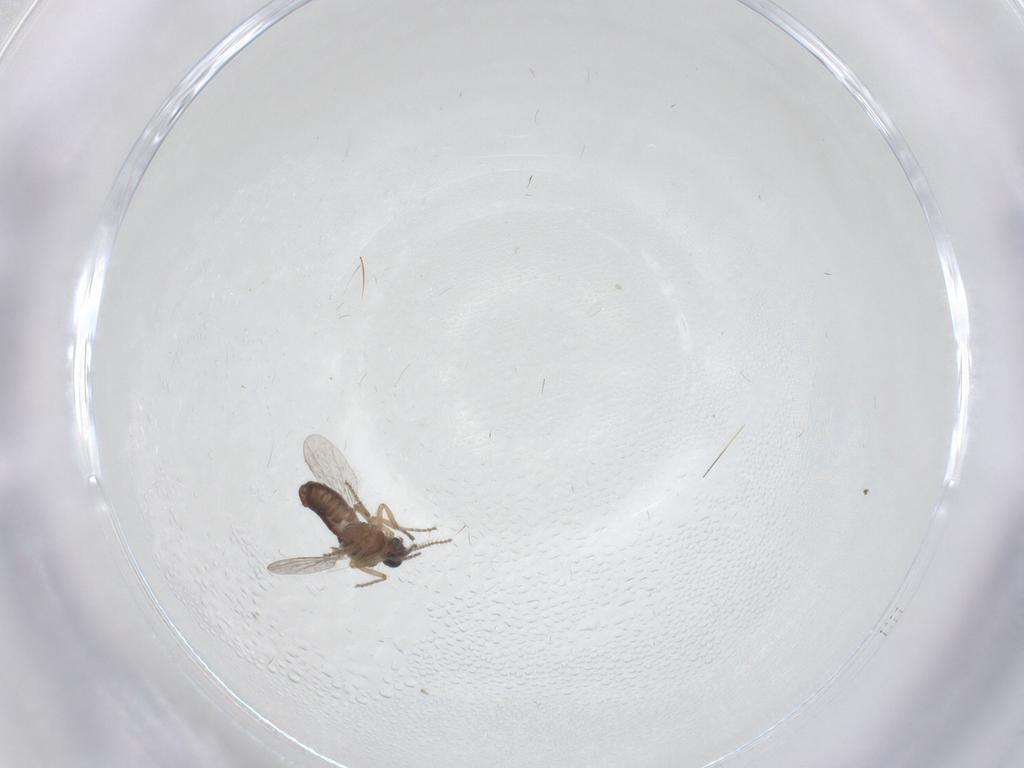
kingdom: Animalia
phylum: Arthropoda
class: Insecta
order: Diptera
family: Ceratopogonidae
